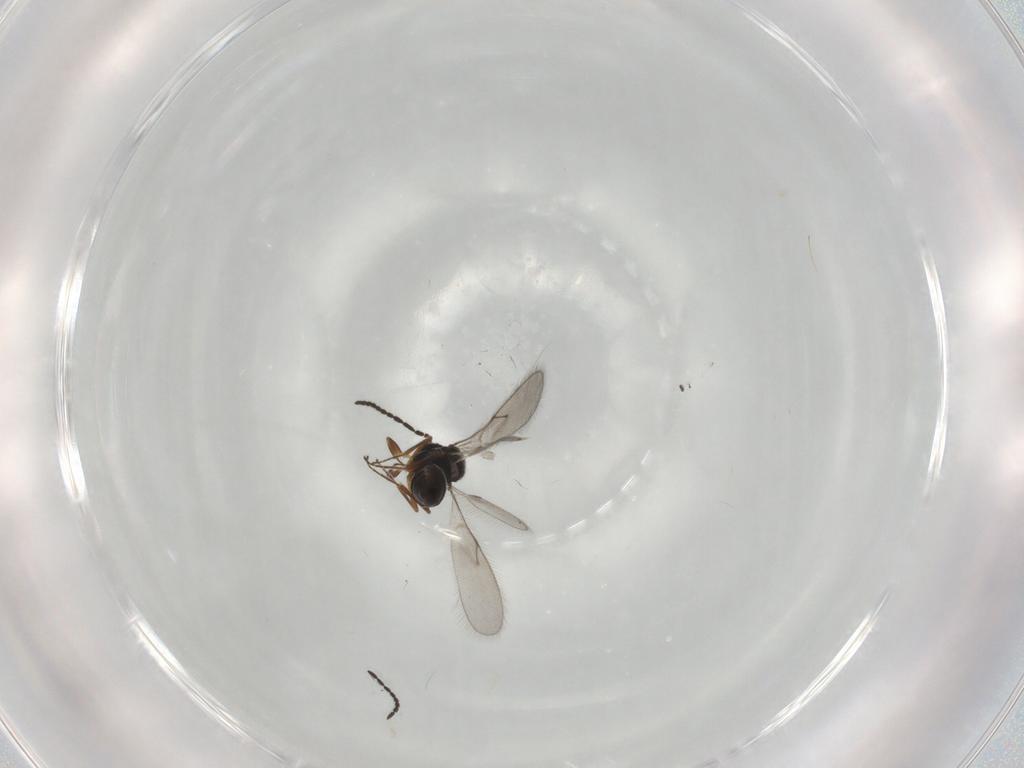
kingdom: Animalia
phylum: Arthropoda
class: Insecta
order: Hymenoptera
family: Scelionidae
